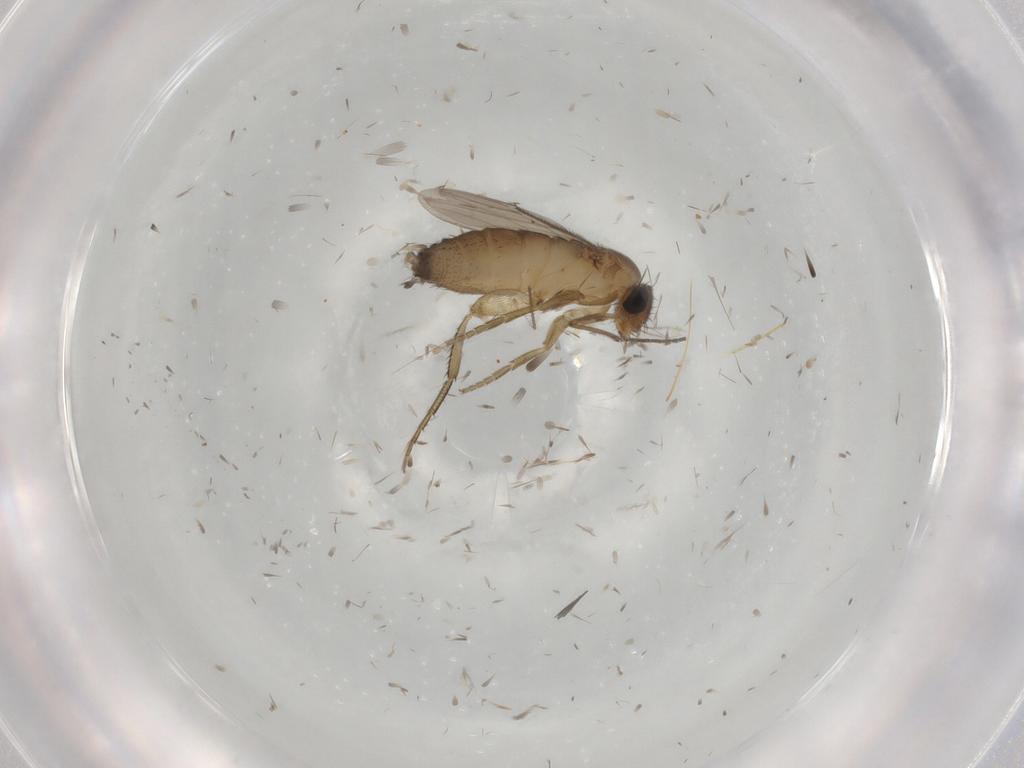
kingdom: Animalia
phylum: Arthropoda
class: Insecta
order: Diptera
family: Phoridae
